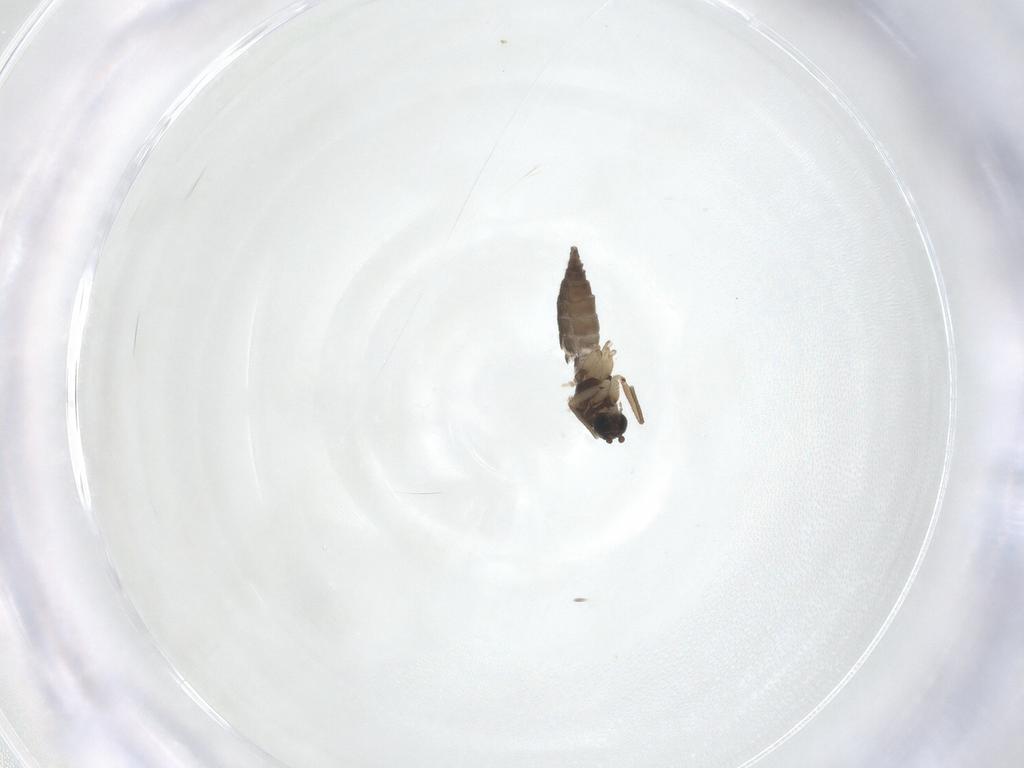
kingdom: Animalia
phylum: Arthropoda
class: Insecta
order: Diptera
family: Sciaridae
